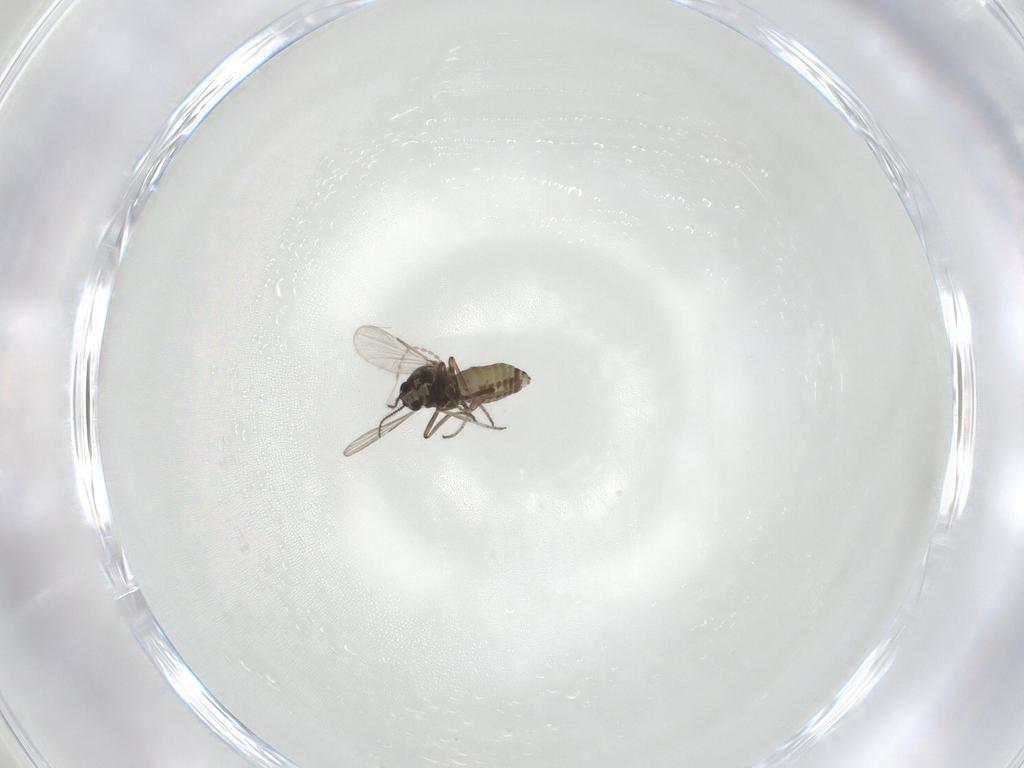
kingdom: Animalia
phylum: Arthropoda
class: Insecta
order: Diptera
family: Ceratopogonidae
